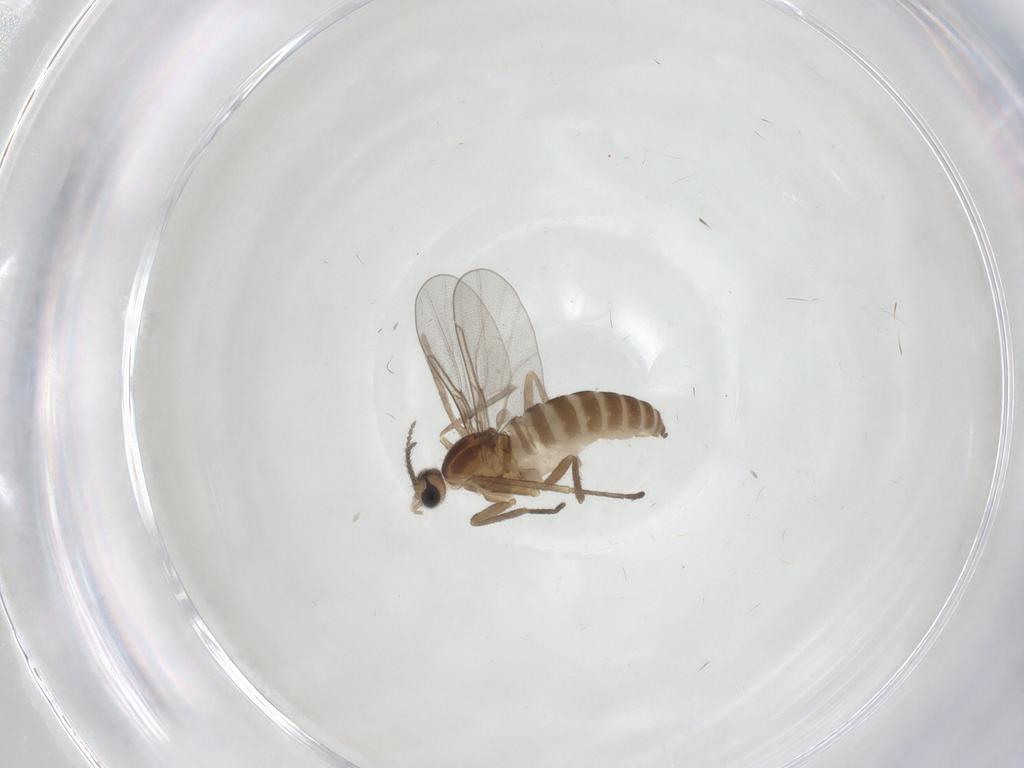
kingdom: Animalia
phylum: Arthropoda
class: Insecta
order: Diptera
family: Cecidomyiidae
